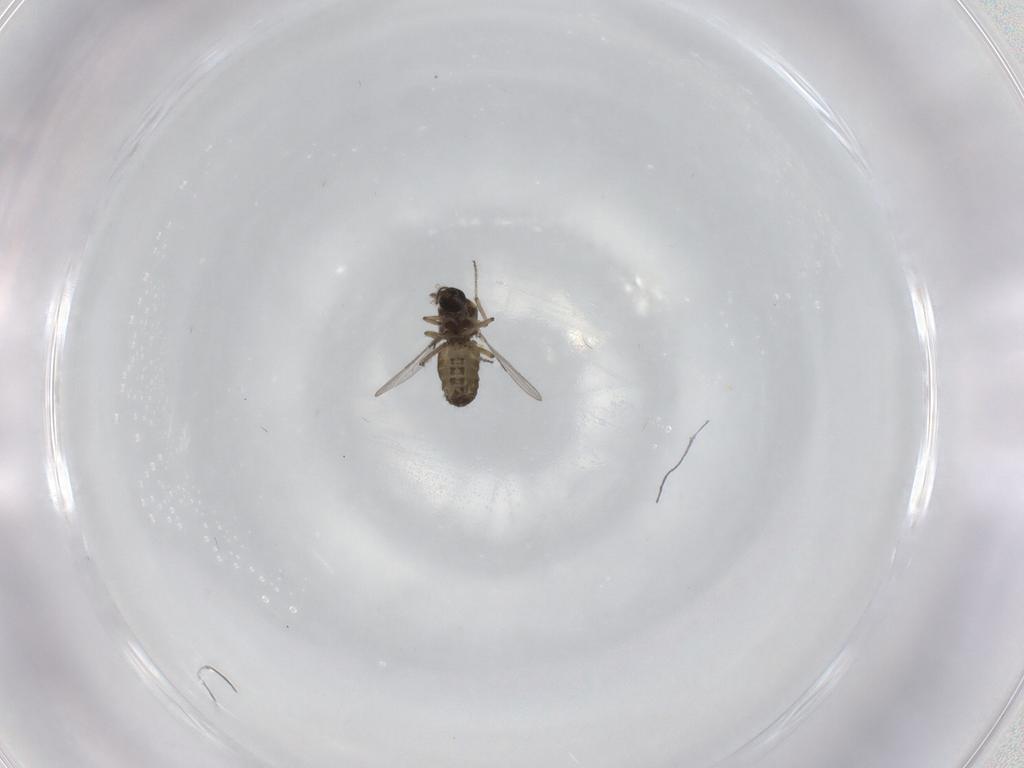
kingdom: Animalia
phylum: Arthropoda
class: Insecta
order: Diptera
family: Ceratopogonidae
